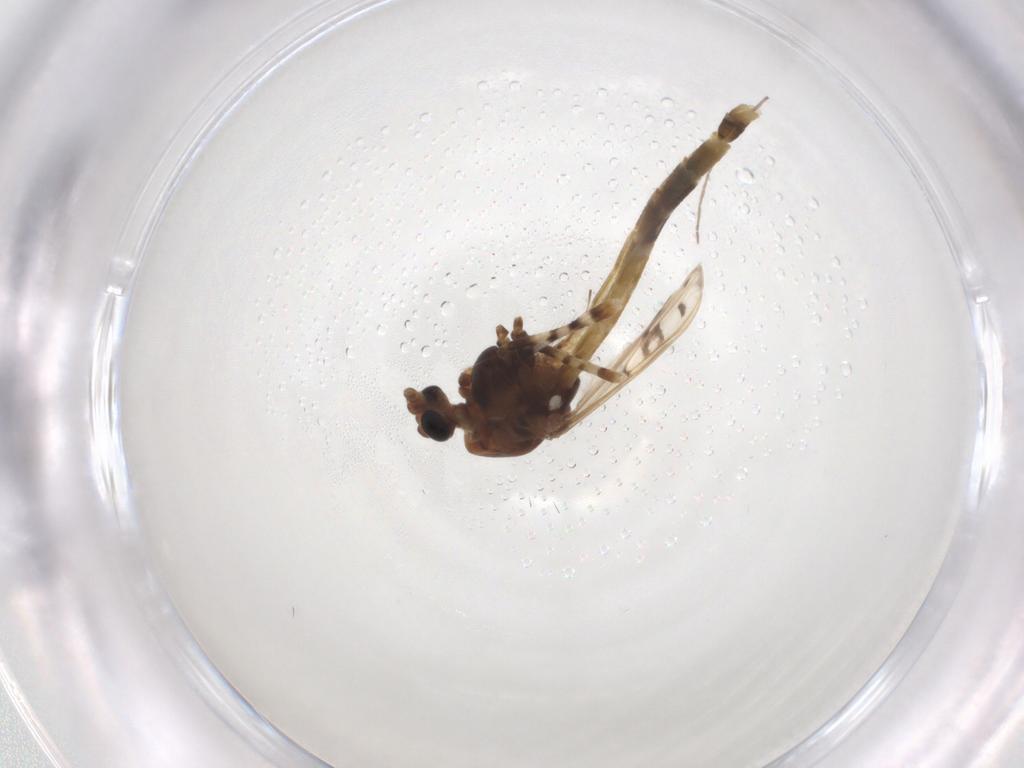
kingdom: Animalia
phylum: Arthropoda
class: Insecta
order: Diptera
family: Chironomidae
